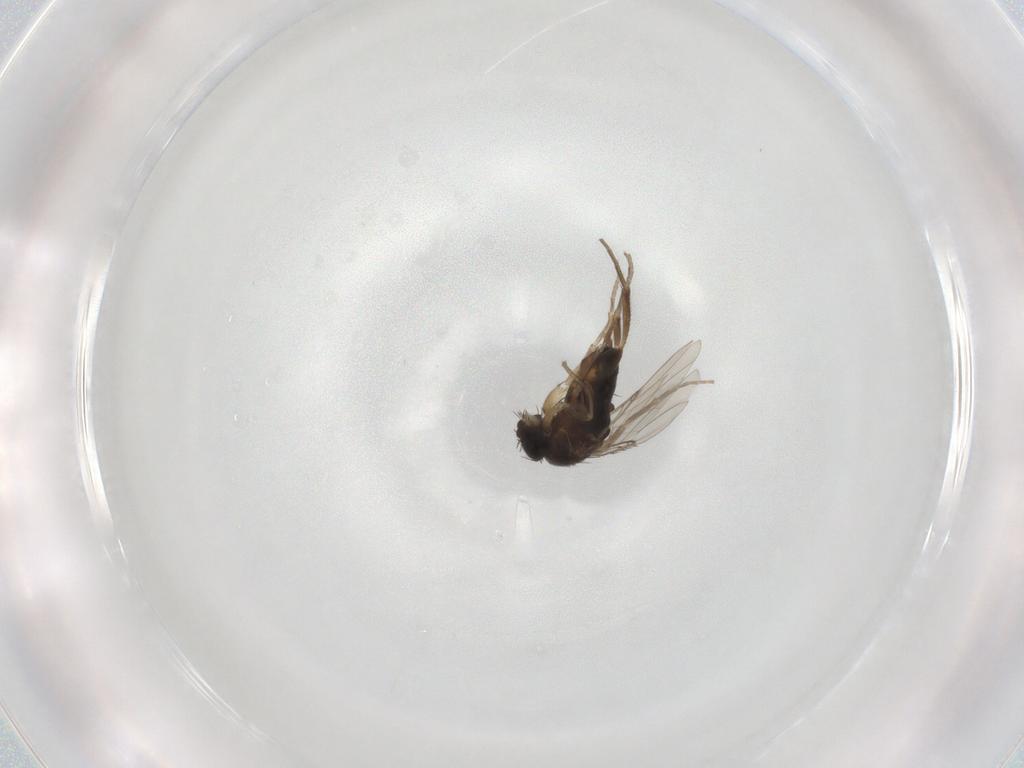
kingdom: Animalia
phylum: Arthropoda
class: Insecta
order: Diptera
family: Phoridae
